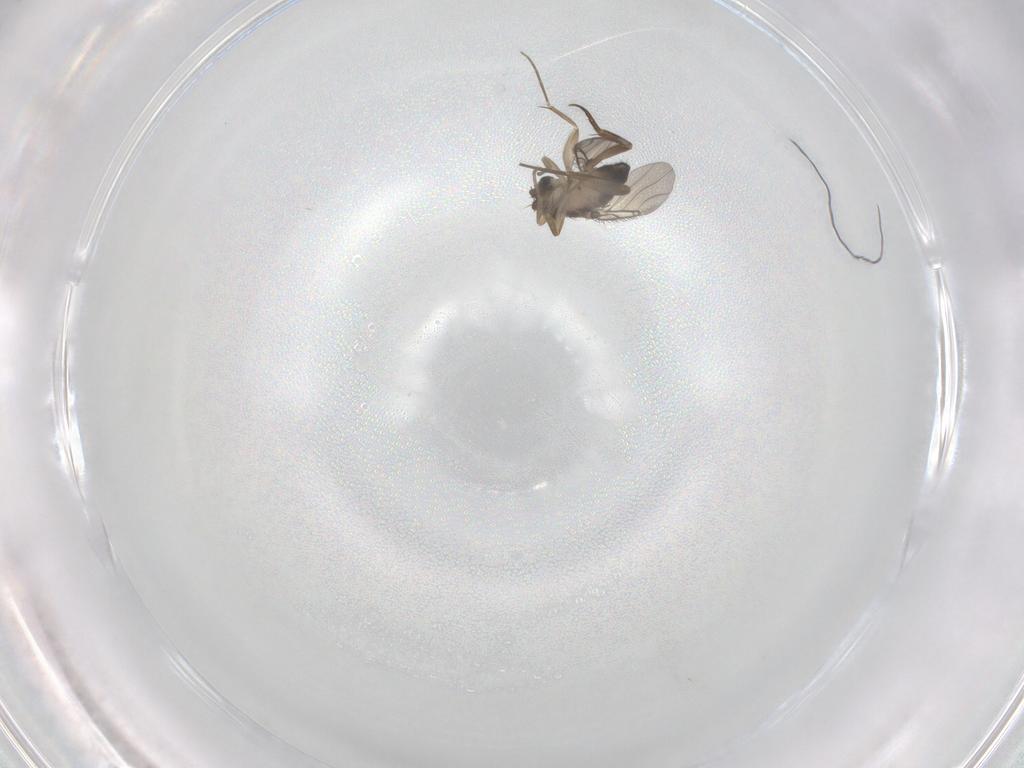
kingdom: Animalia
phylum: Arthropoda
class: Insecta
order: Diptera
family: Phoridae
